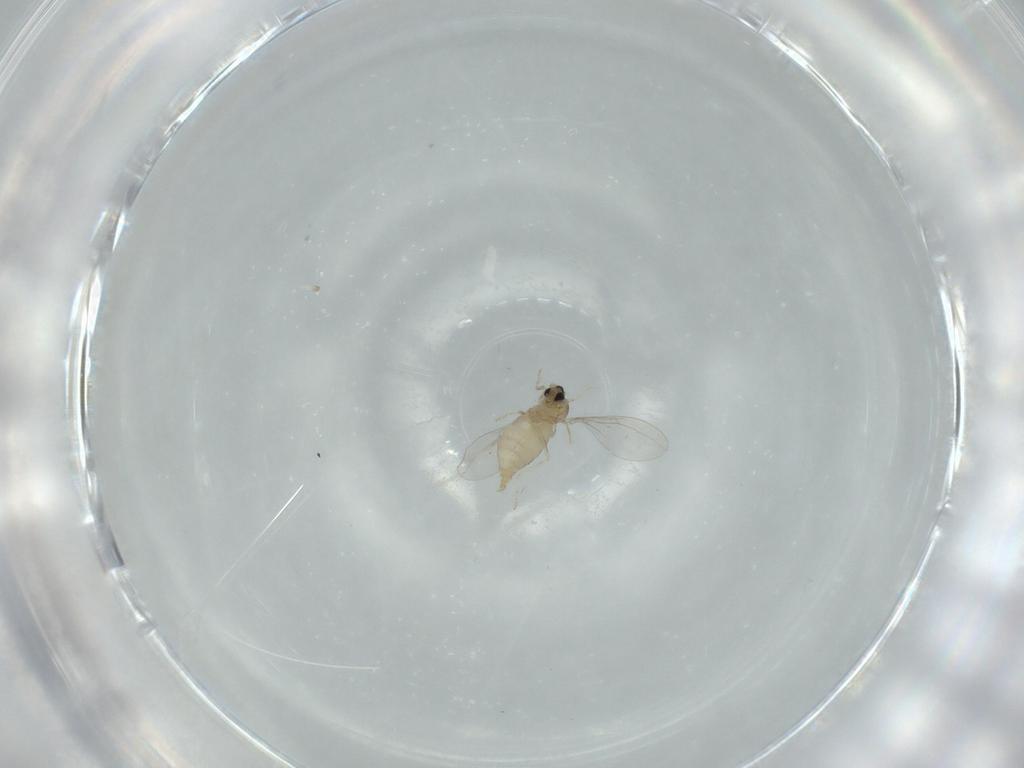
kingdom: Animalia
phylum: Arthropoda
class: Insecta
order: Diptera
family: Cecidomyiidae
